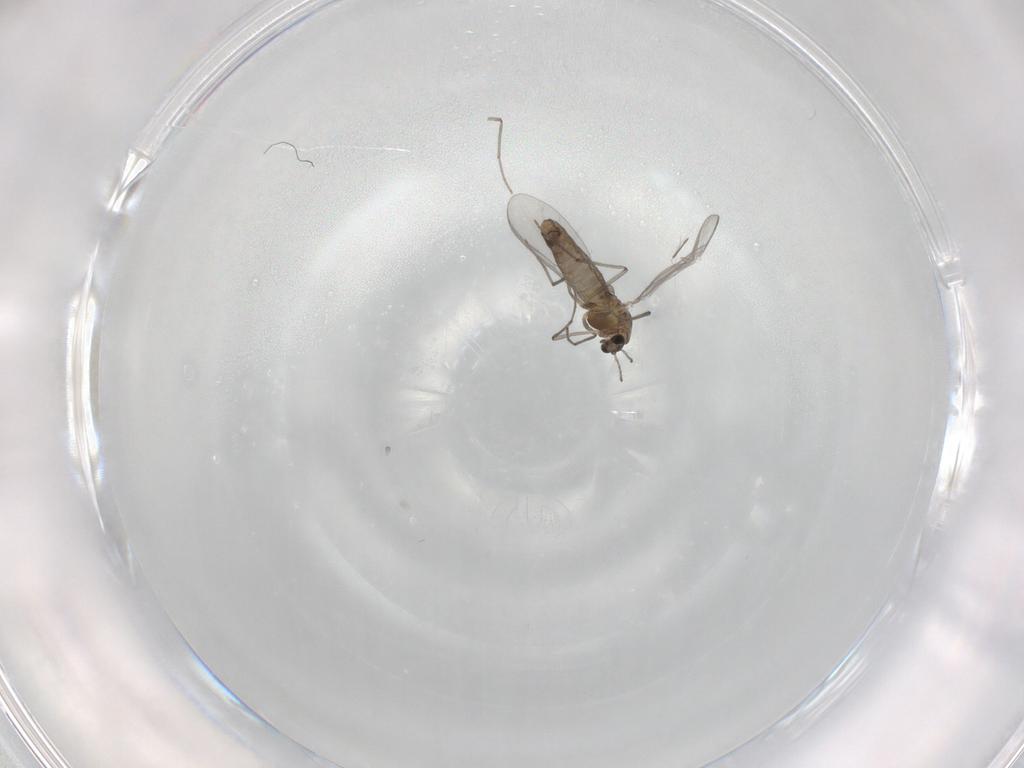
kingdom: Animalia
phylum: Arthropoda
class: Insecta
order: Diptera
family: Chironomidae
